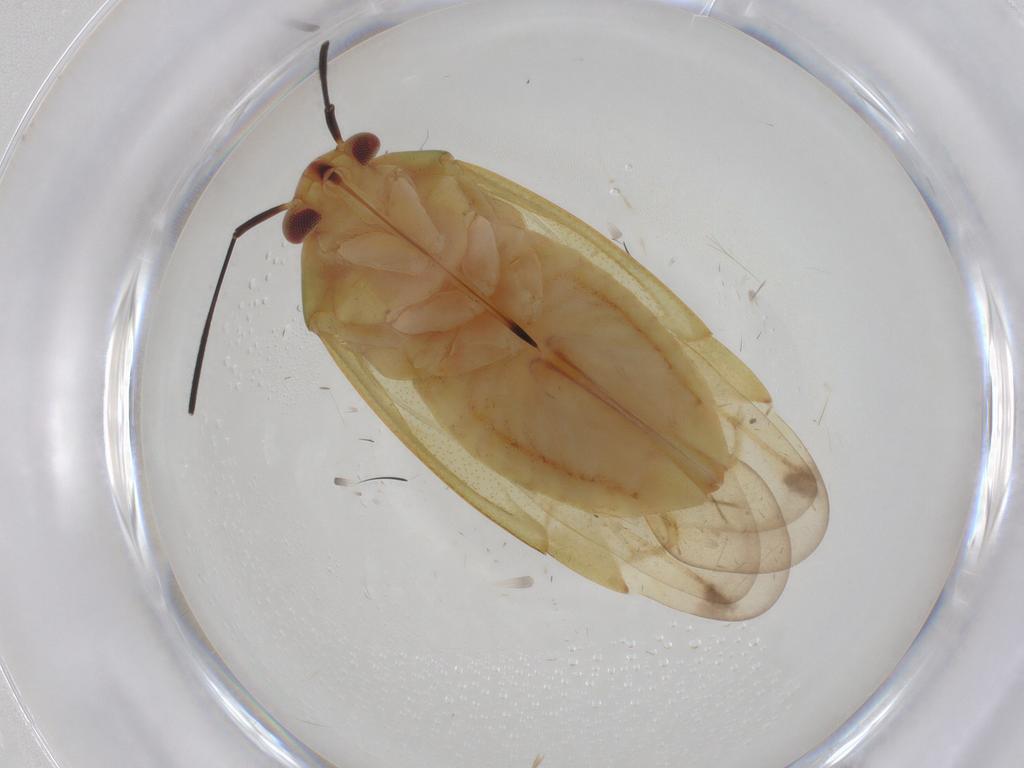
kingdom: Animalia
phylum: Arthropoda
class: Insecta
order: Hemiptera
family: Miridae
